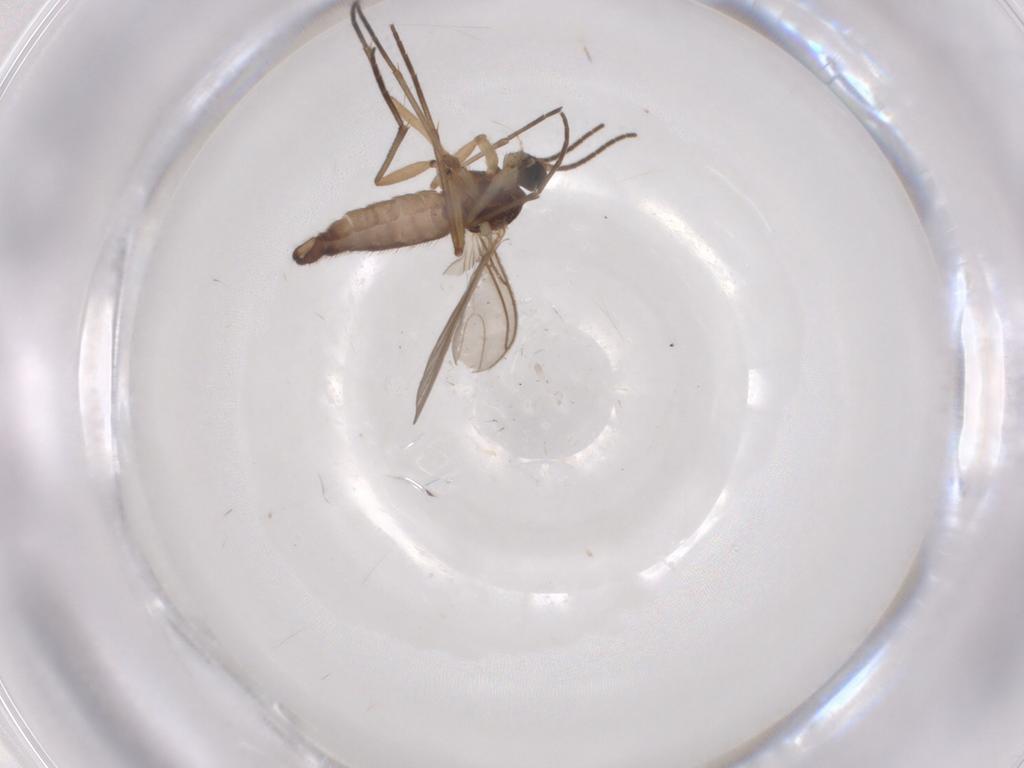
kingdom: Animalia
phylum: Arthropoda
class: Insecta
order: Diptera
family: Sciaridae
